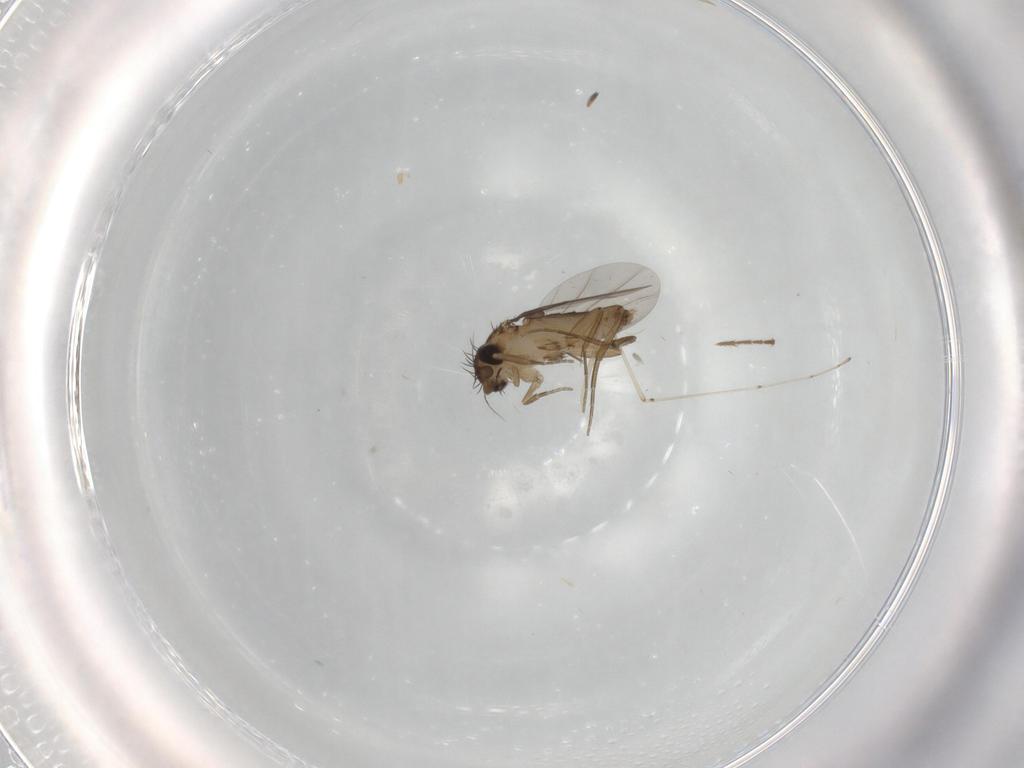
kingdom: Animalia
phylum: Arthropoda
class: Insecta
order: Diptera
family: Phoridae
